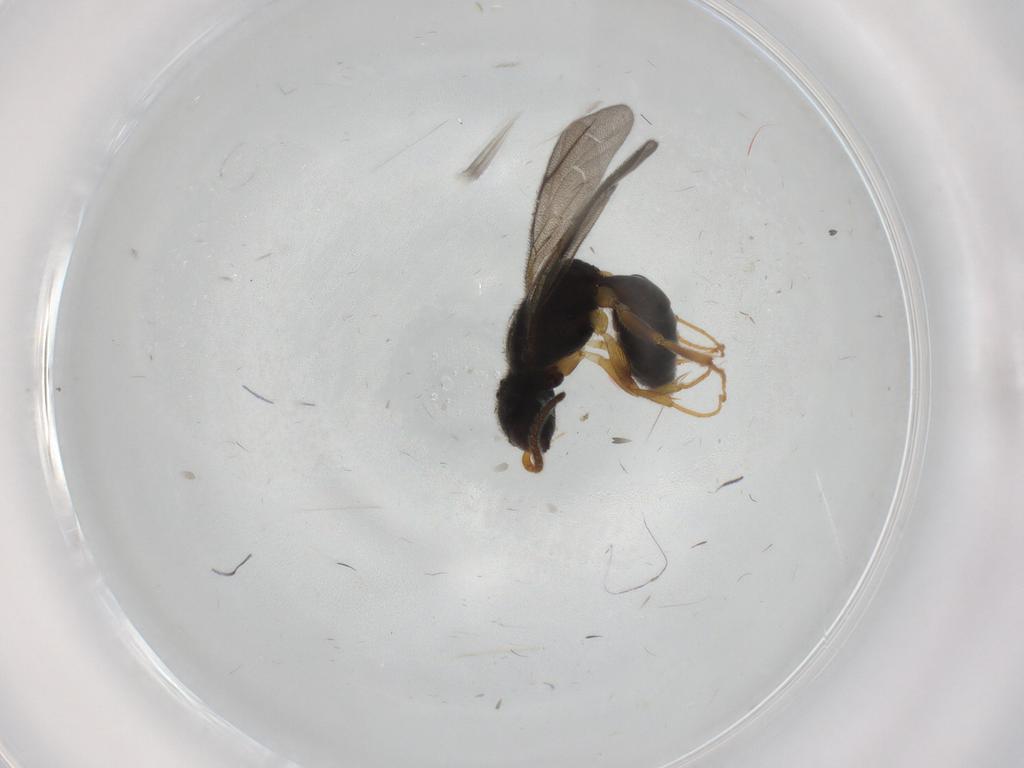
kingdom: Animalia
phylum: Arthropoda
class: Insecta
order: Hymenoptera
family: Bethylidae
